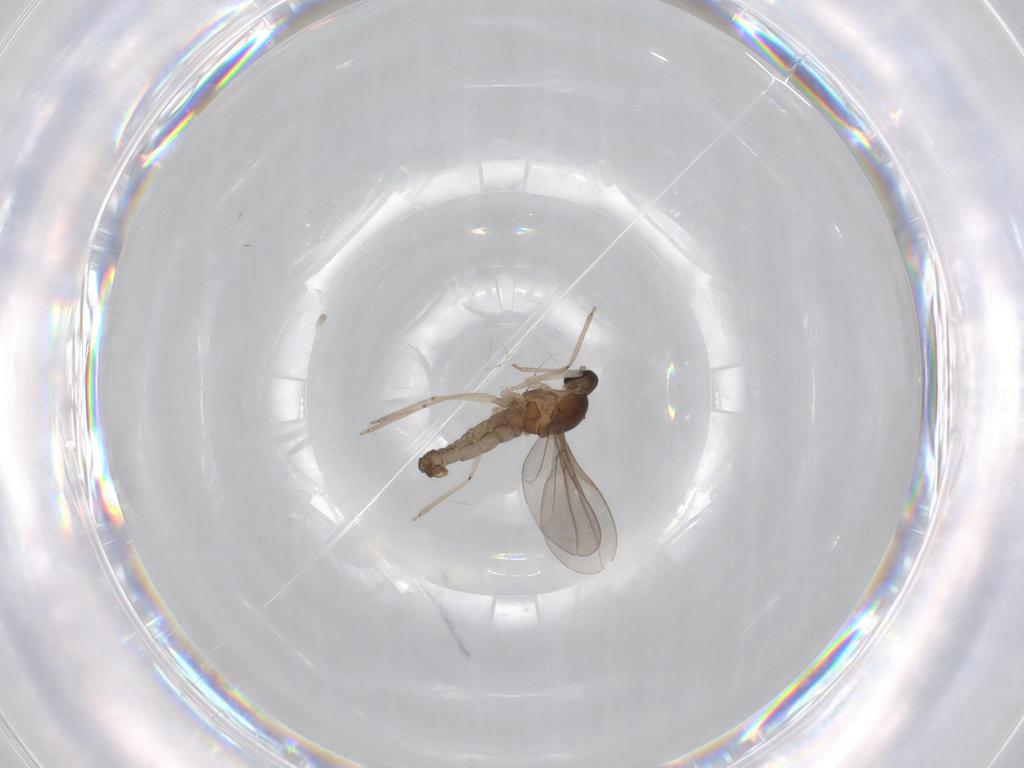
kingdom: Animalia
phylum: Arthropoda
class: Insecta
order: Diptera
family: Cecidomyiidae
